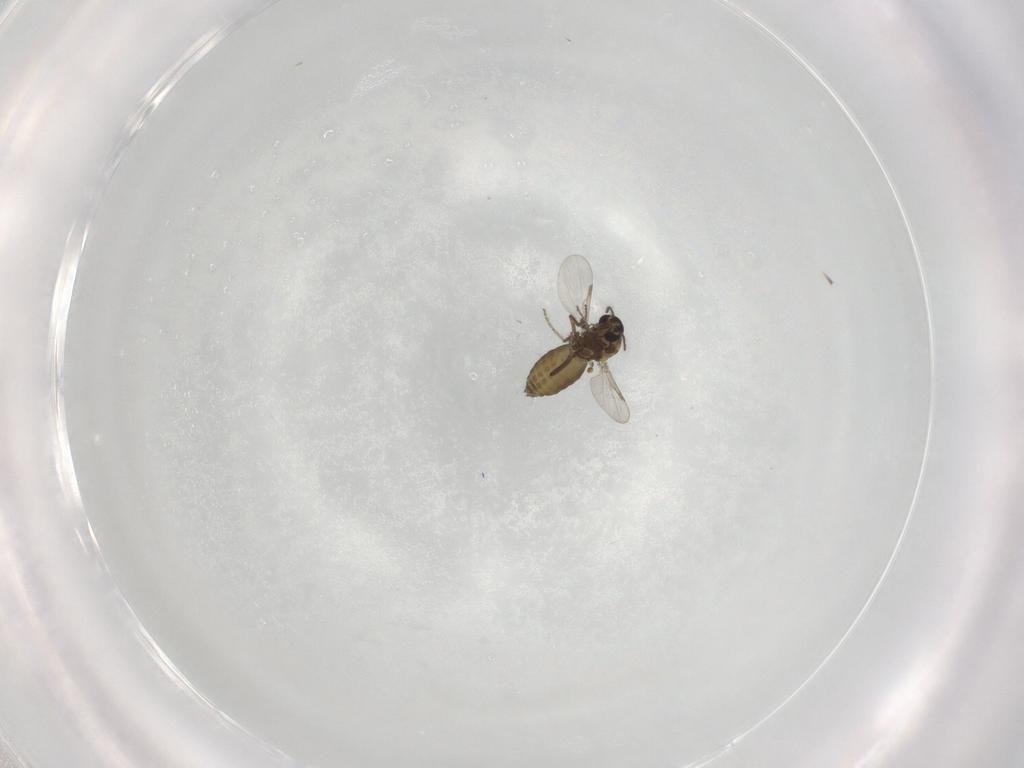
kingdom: Animalia
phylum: Arthropoda
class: Insecta
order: Diptera
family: Ceratopogonidae
